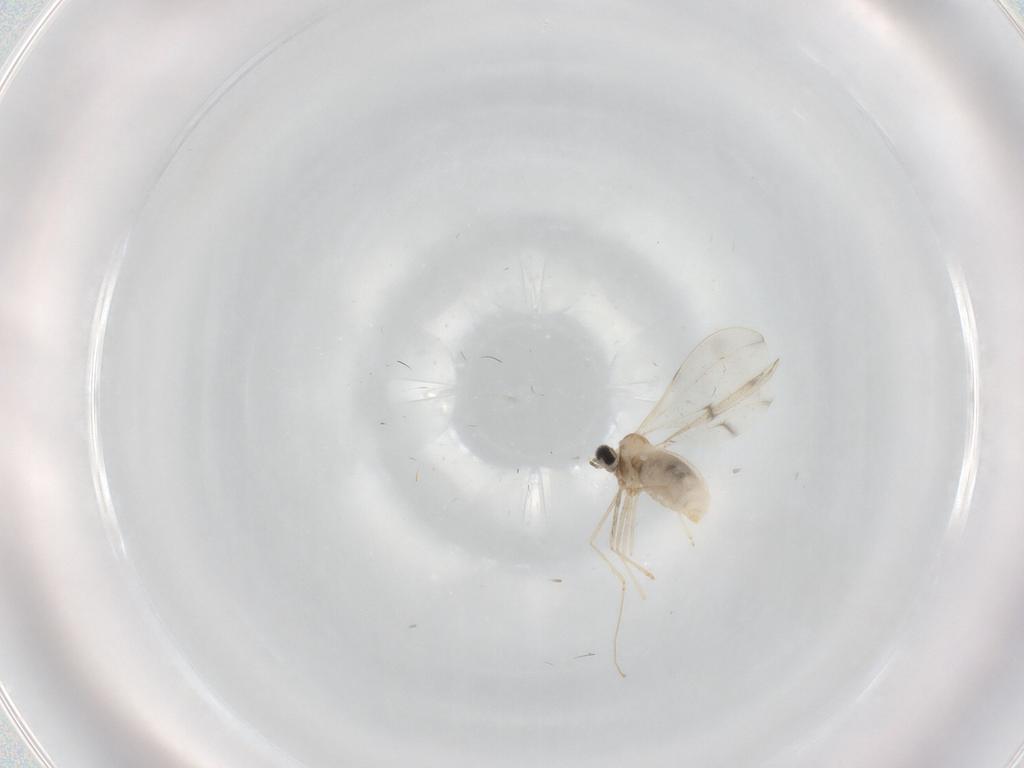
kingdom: Animalia
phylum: Arthropoda
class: Insecta
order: Diptera
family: Cecidomyiidae
